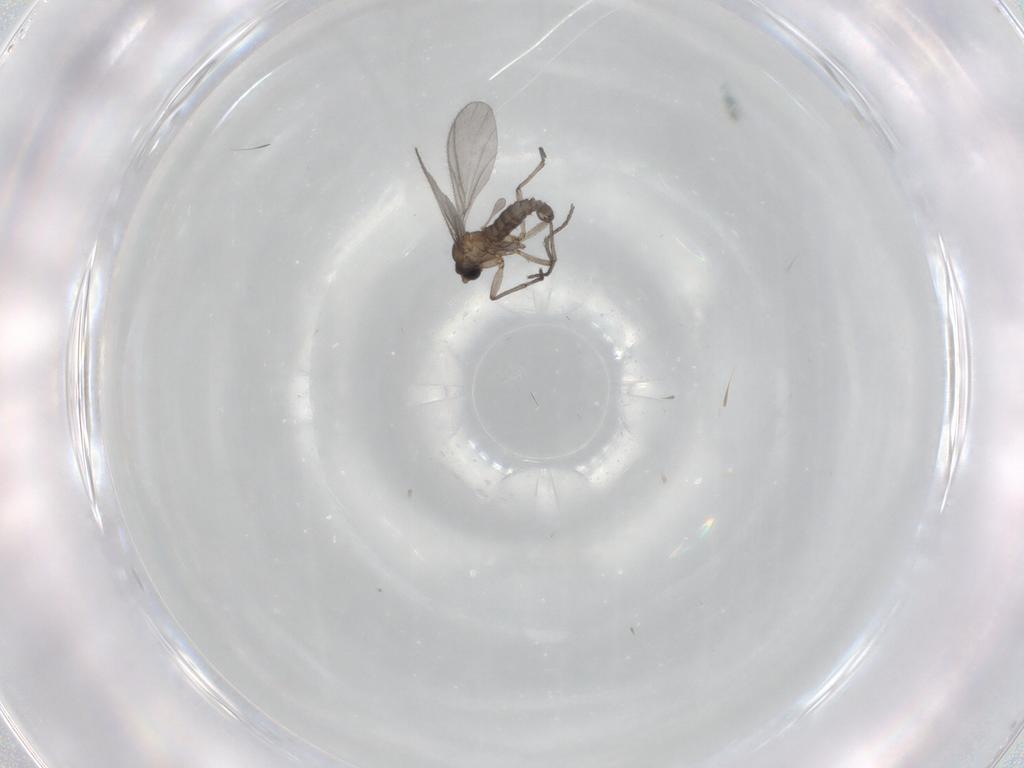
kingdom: Animalia
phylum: Arthropoda
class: Insecta
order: Diptera
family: Sciaridae
